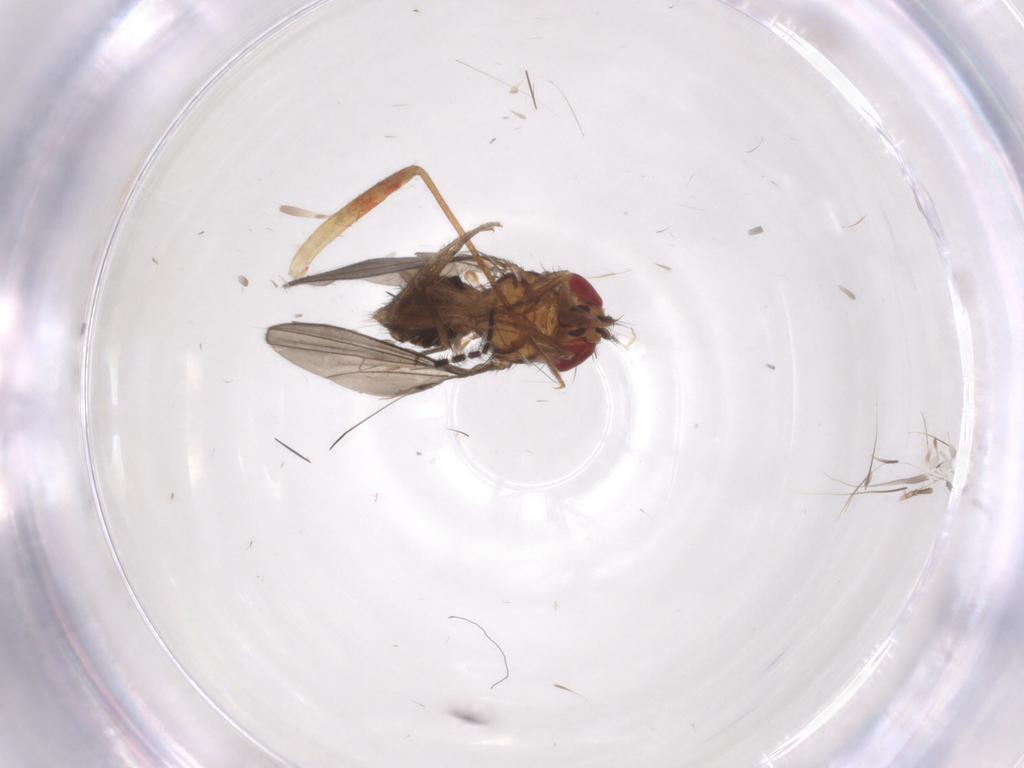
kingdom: Animalia
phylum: Arthropoda
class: Insecta
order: Diptera
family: Drosophilidae
